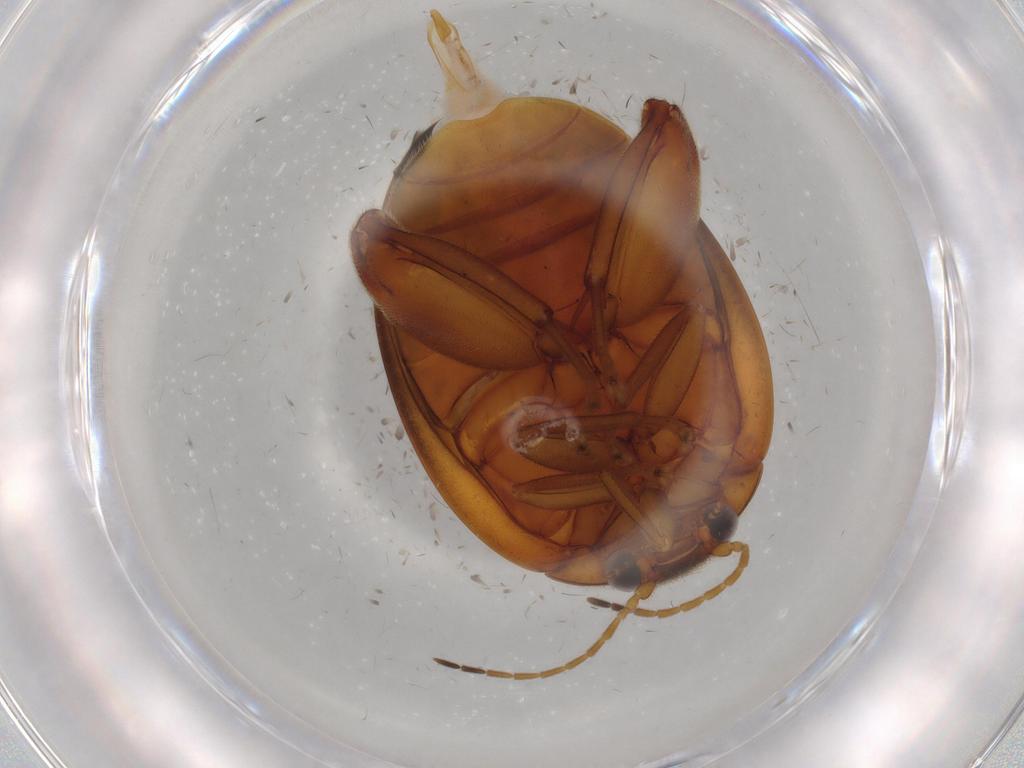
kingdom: Animalia
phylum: Arthropoda
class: Insecta
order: Coleoptera
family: Scirtidae
